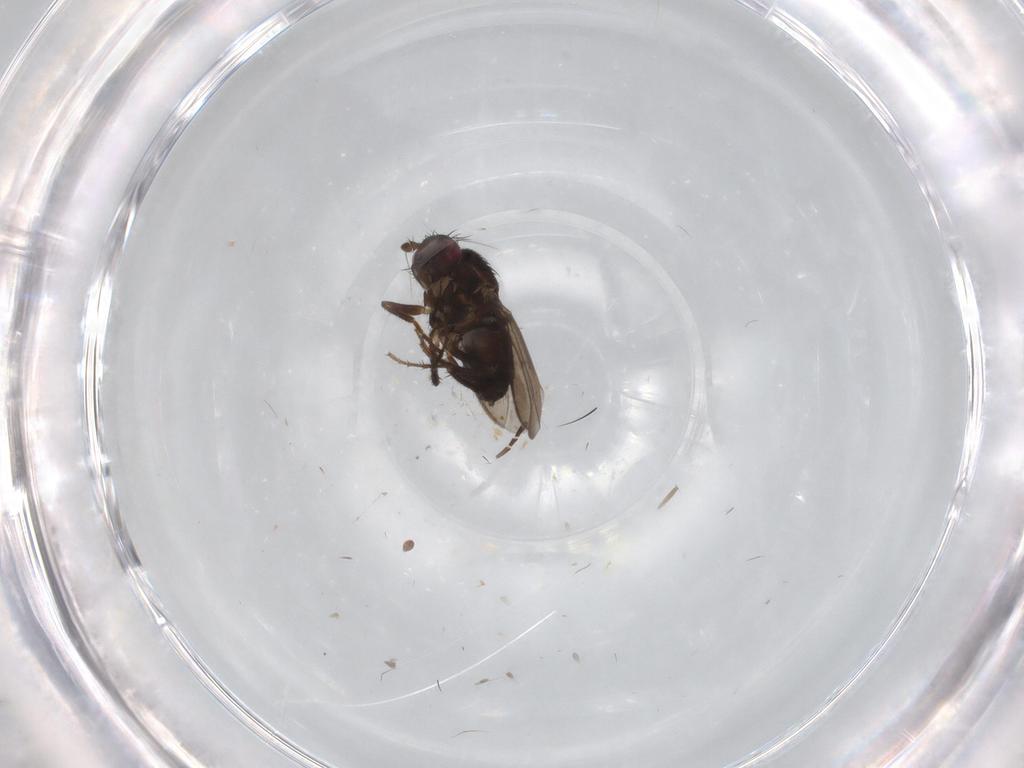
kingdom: Animalia
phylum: Arthropoda
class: Insecta
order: Diptera
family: Sphaeroceridae
